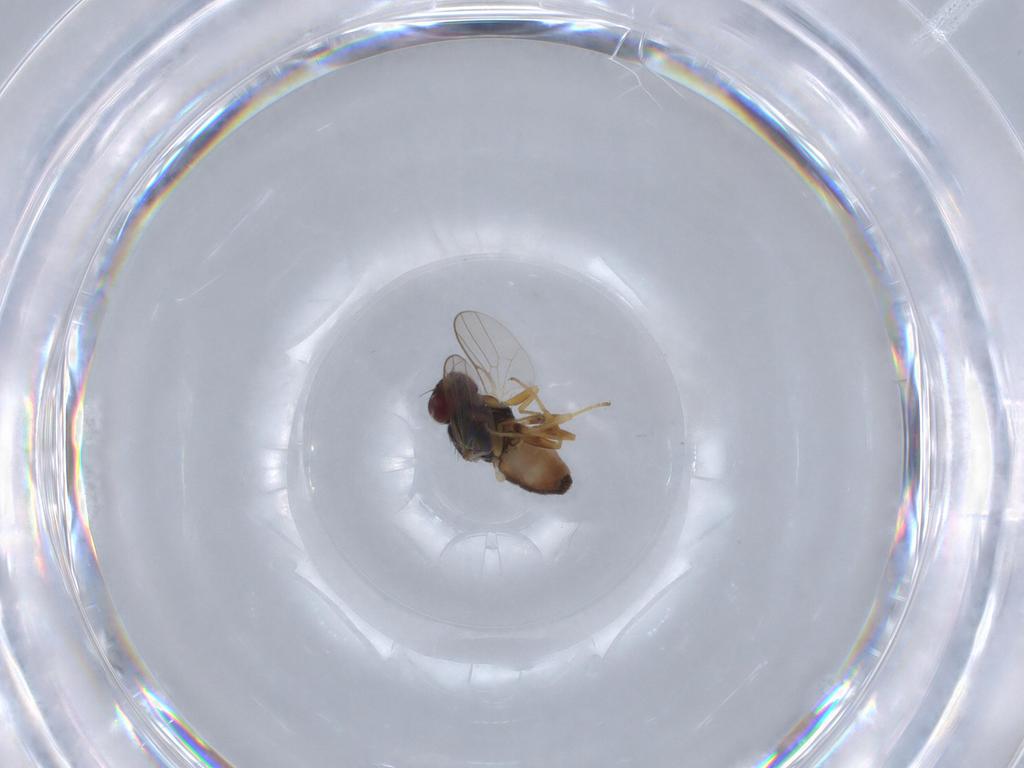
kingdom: Animalia
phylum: Arthropoda
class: Insecta
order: Diptera
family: Chloropidae
